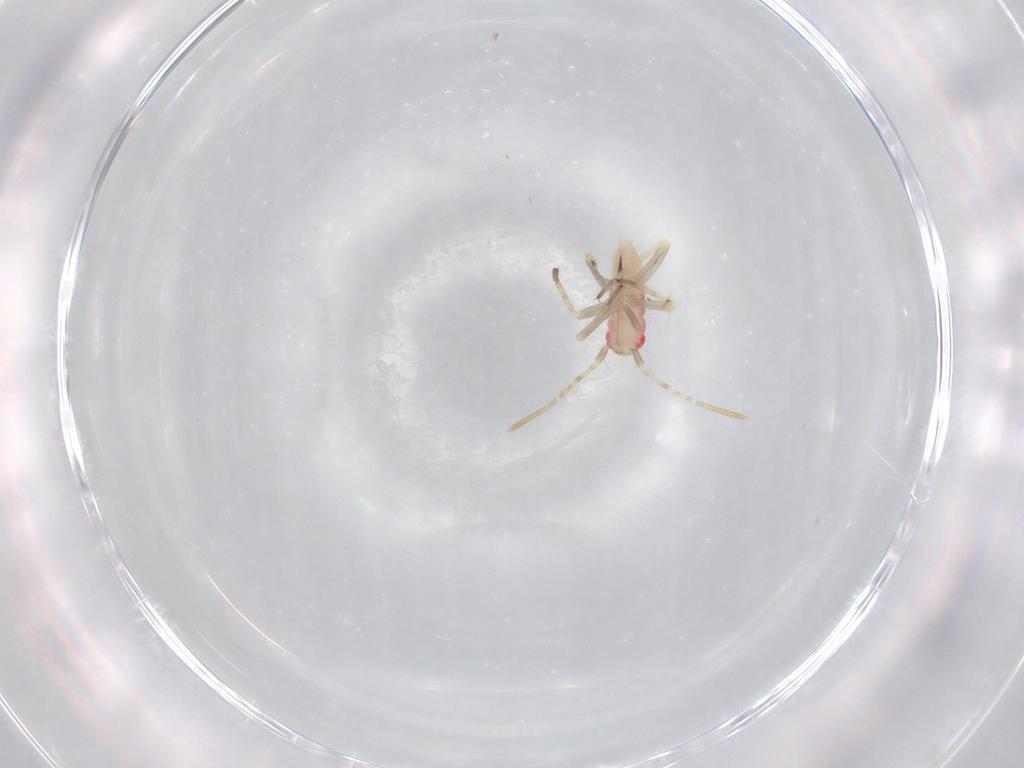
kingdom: Animalia
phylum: Arthropoda
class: Insecta
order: Hemiptera
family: Miridae
